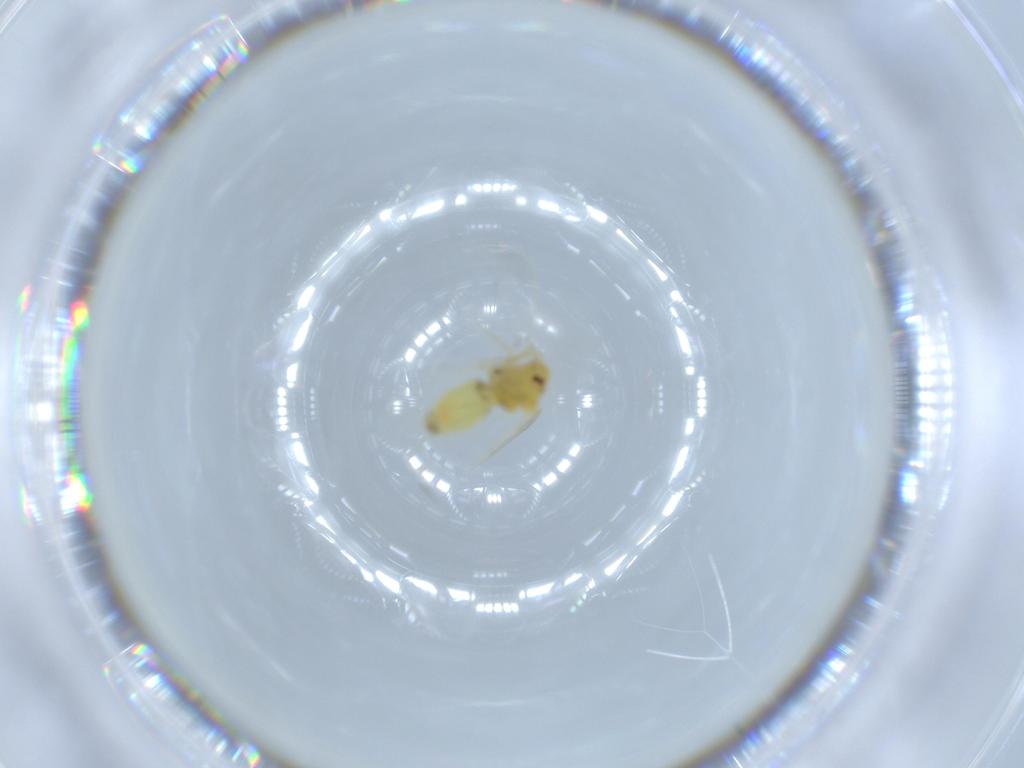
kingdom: Animalia
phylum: Arthropoda
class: Insecta
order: Hemiptera
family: Aleyrodidae
